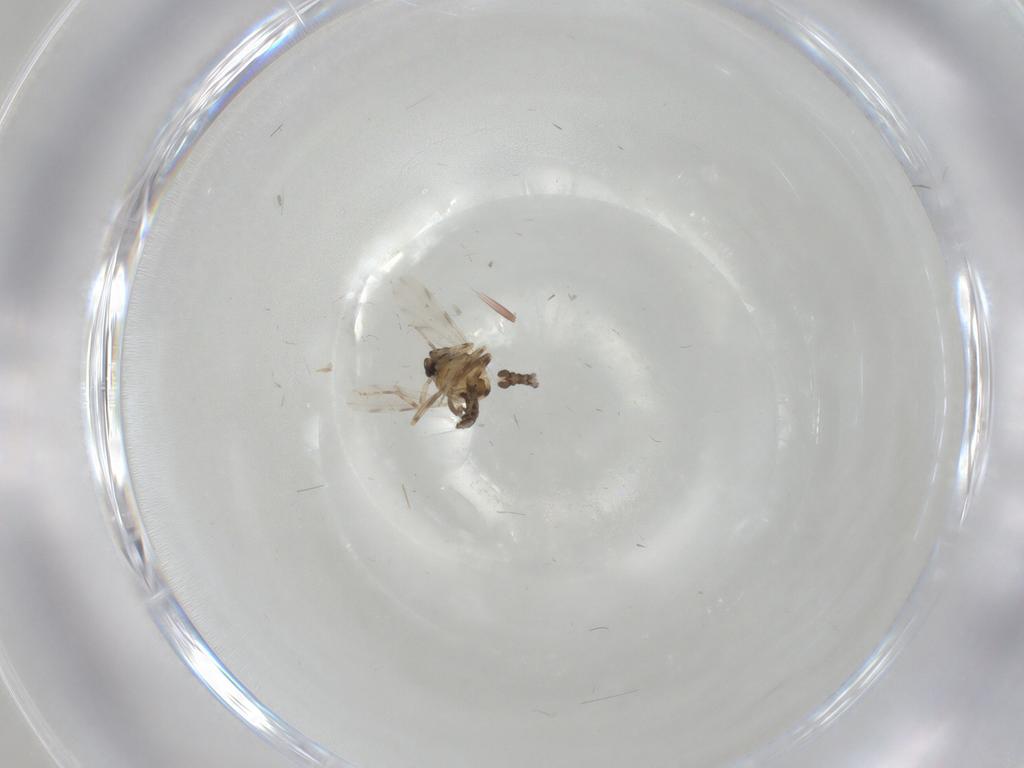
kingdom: Animalia
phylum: Arthropoda
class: Insecta
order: Diptera
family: Ceratopogonidae
